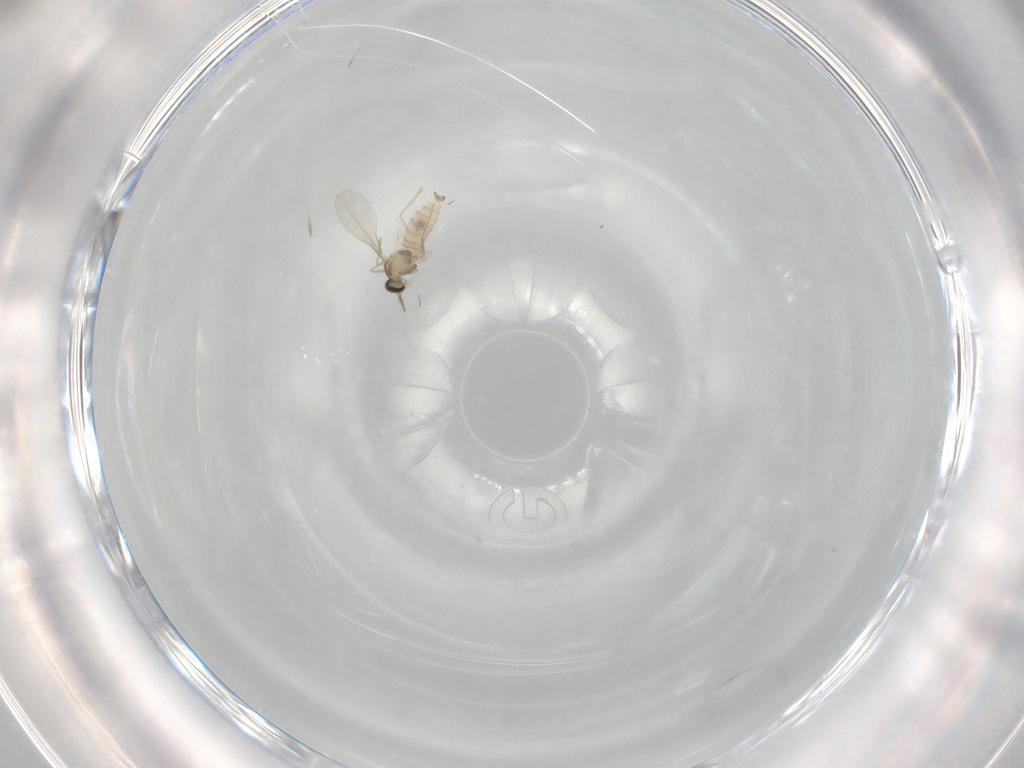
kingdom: Animalia
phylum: Arthropoda
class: Insecta
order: Diptera
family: Cecidomyiidae
